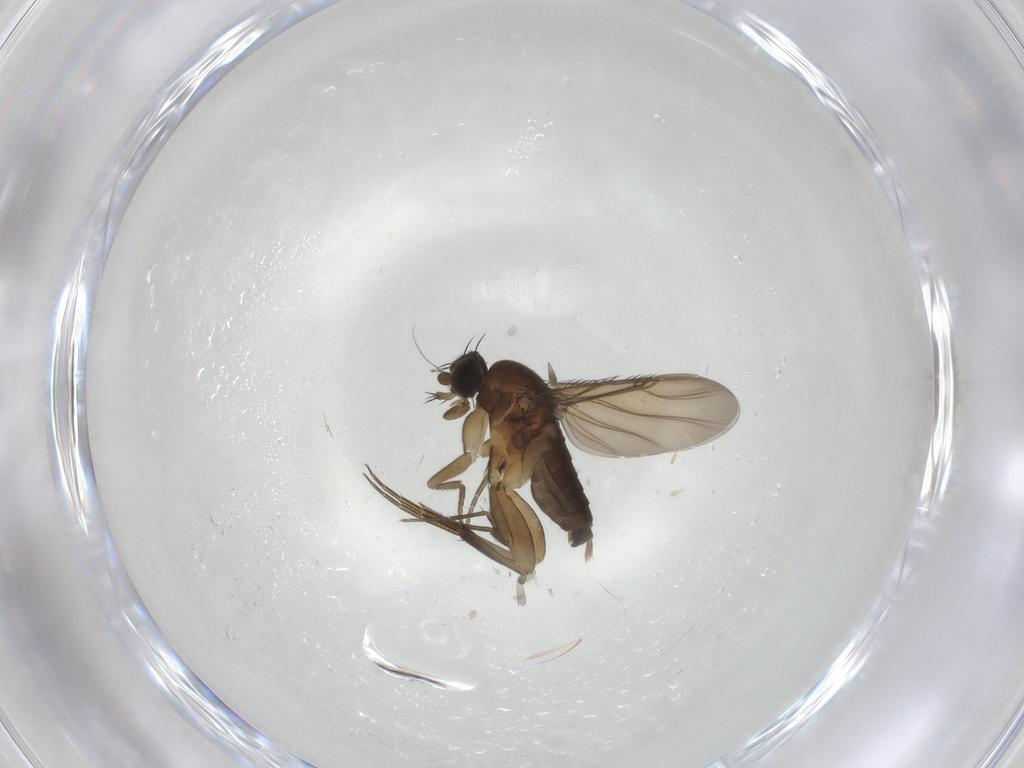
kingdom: Animalia
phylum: Arthropoda
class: Insecta
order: Diptera
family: Phoridae
